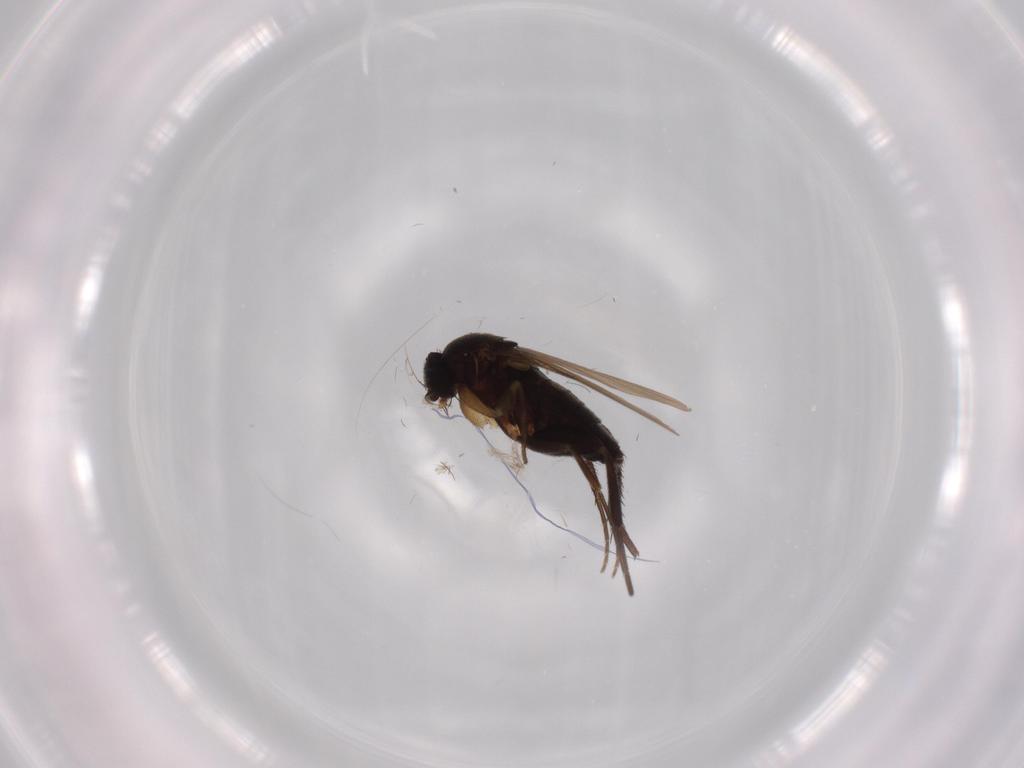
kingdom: Animalia
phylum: Arthropoda
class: Insecta
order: Diptera
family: Phoridae
